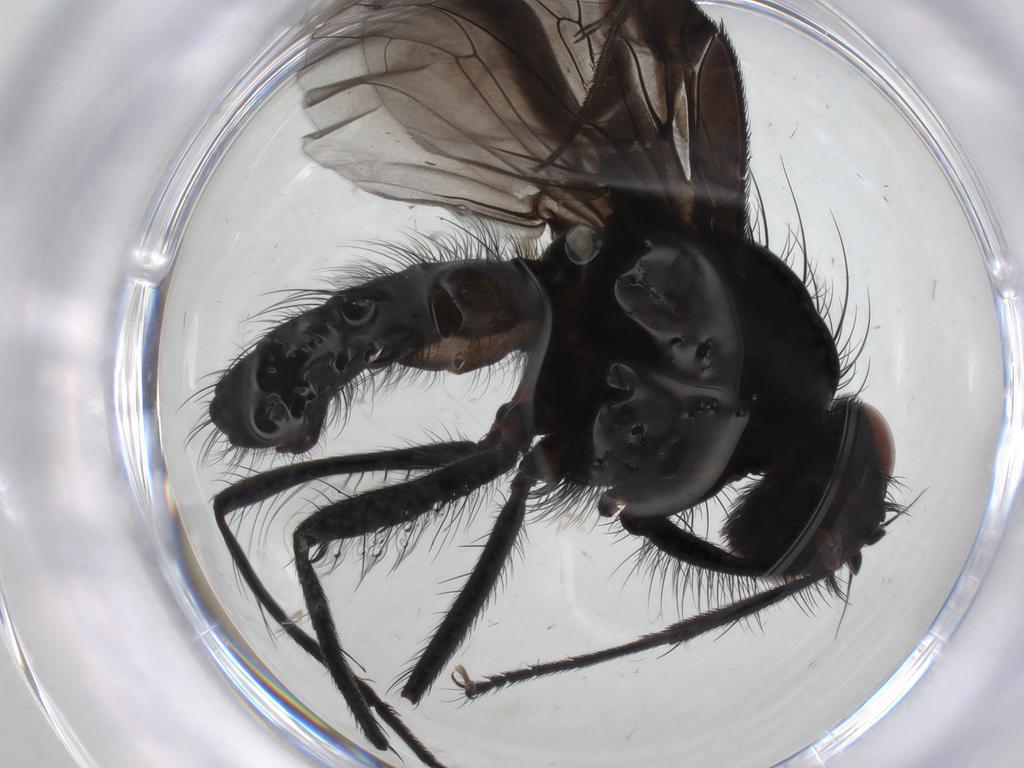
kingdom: Animalia
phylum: Arthropoda
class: Insecta
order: Diptera
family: Anthomyiidae
